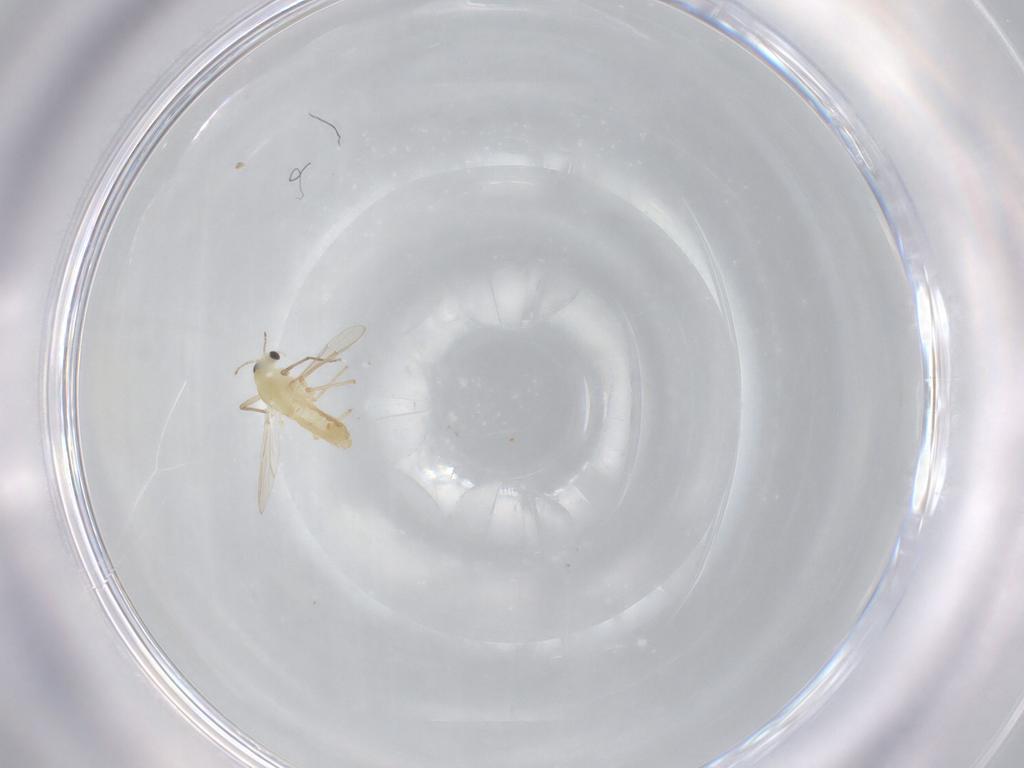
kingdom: Animalia
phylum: Arthropoda
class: Insecta
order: Diptera
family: Chironomidae
